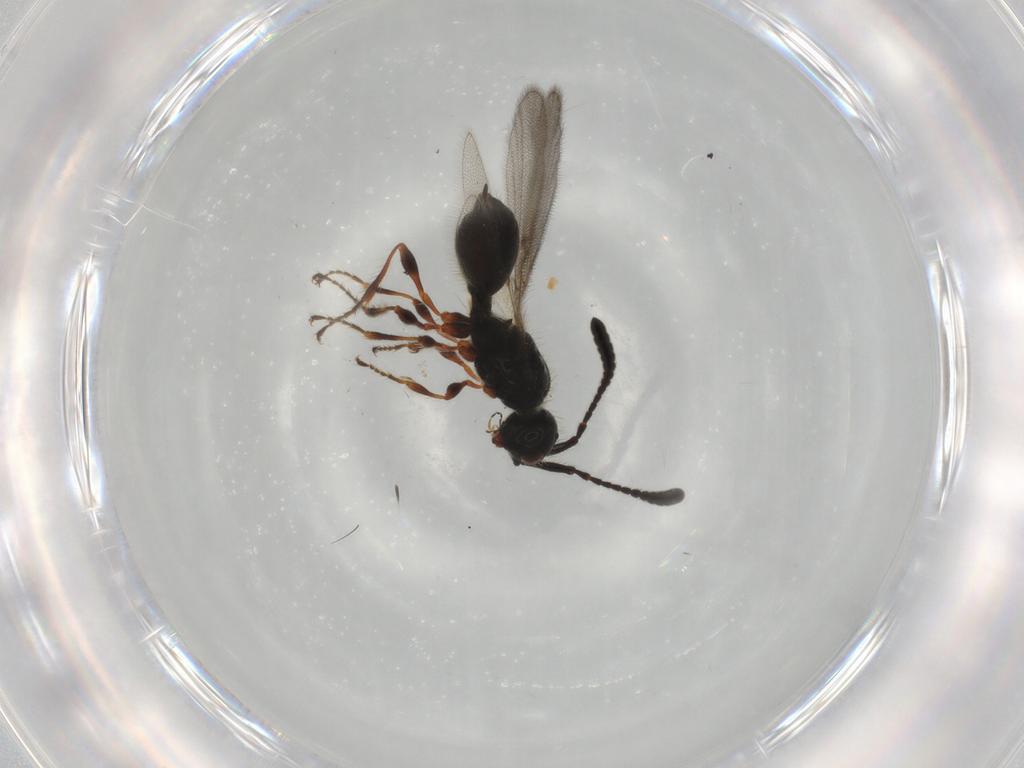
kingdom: Animalia
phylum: Arthropoda
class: Insecta
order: Hymenoptera
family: Diapriidae
